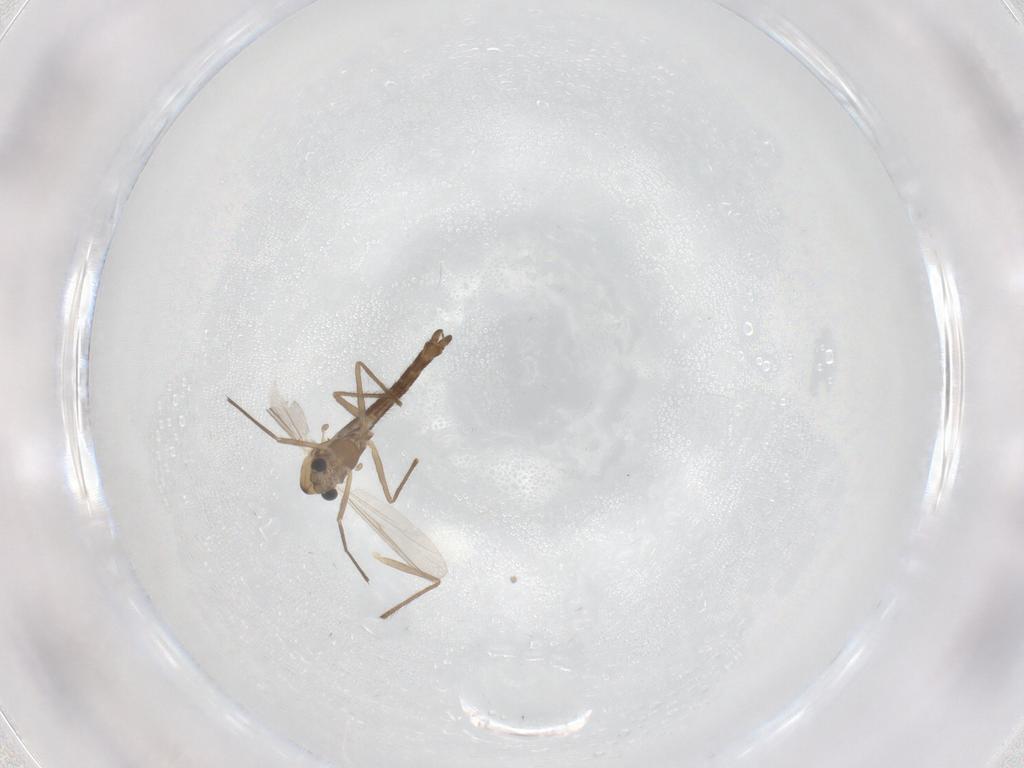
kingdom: Animalia
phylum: Arthropoda
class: Insecta
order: Diptera
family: Chironomidae
